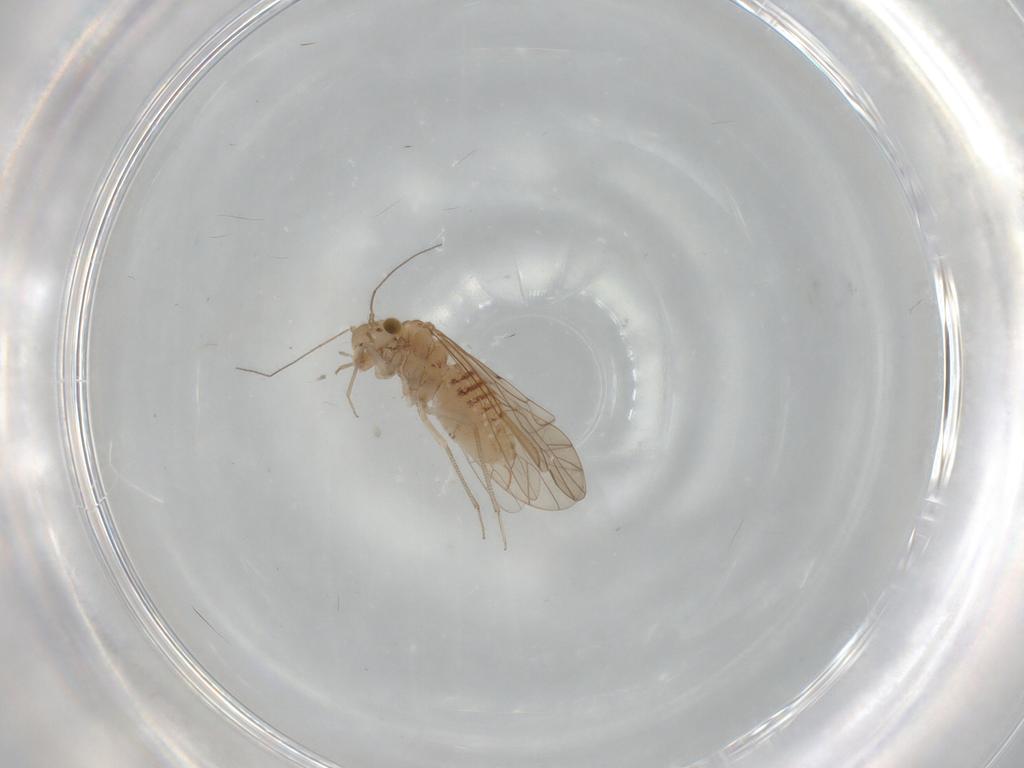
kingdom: Animalia
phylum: Arthropoda
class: Insecta
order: Psocodea
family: Lachesillidae
